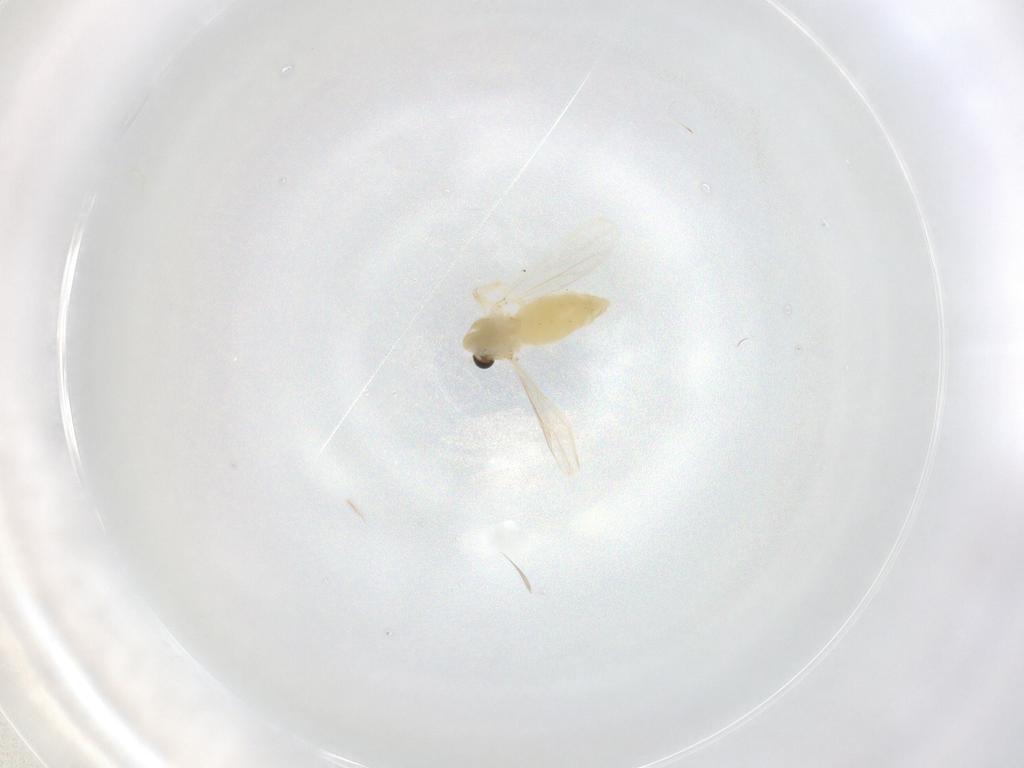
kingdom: Animalia
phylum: Arthropoda
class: Insecta
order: Diptera
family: Chironomidae
